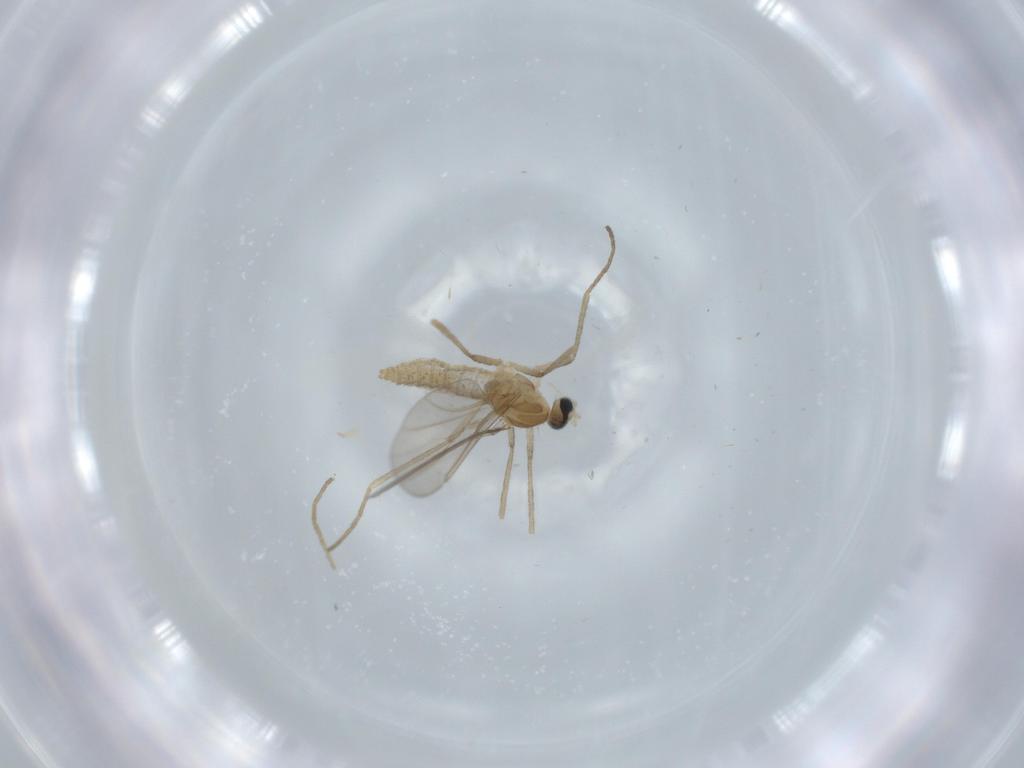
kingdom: Animalia
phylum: Arthropoda
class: Insecta
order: Diptera
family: Cecidomyiidae
